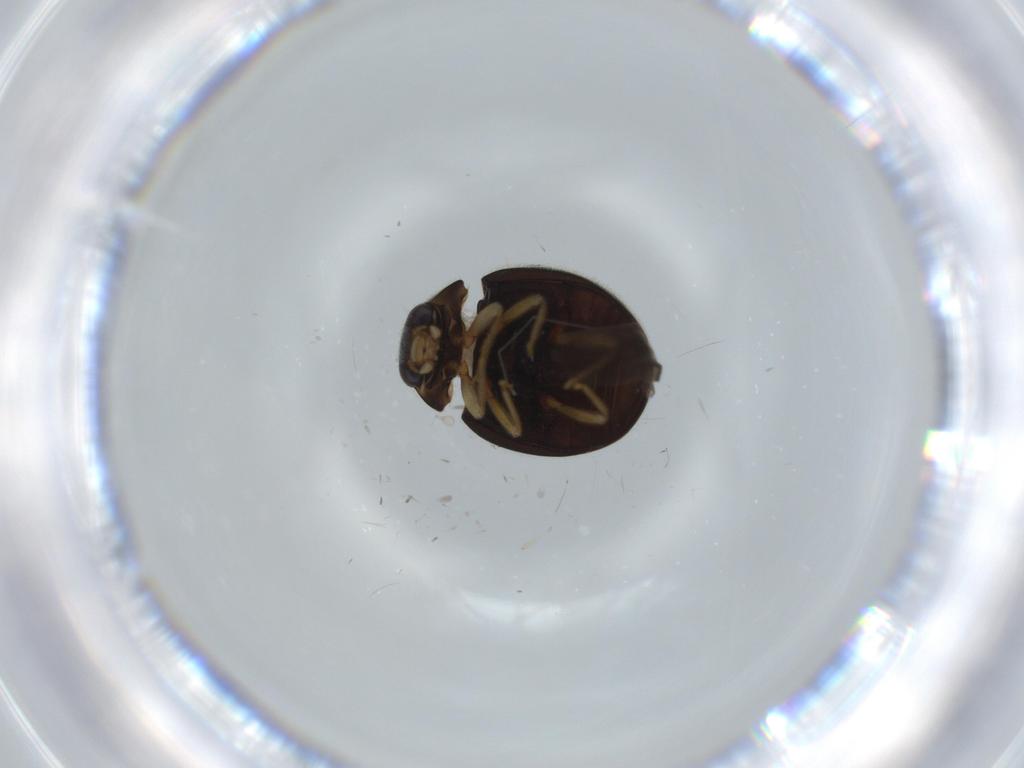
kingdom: Animalia
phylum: Arthropoda
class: Insecta
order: Coleoptera
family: Coccinellidae
